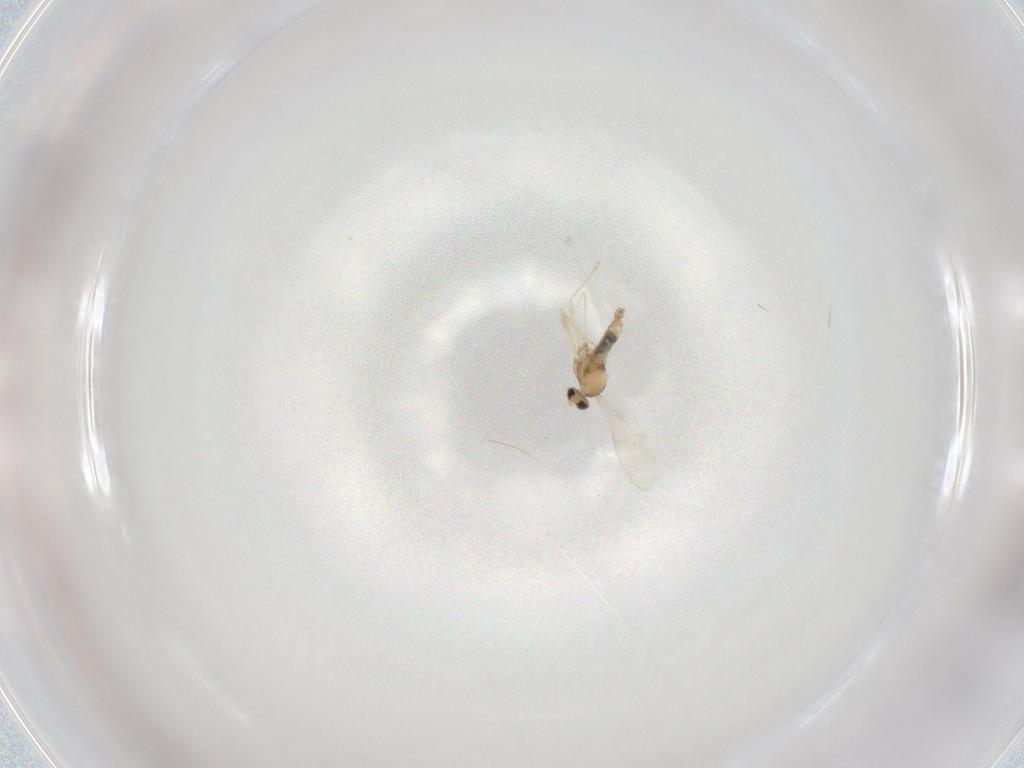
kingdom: Animalia
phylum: Arthropoda
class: Insecta
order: Diptera
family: Cecidomyiidae
